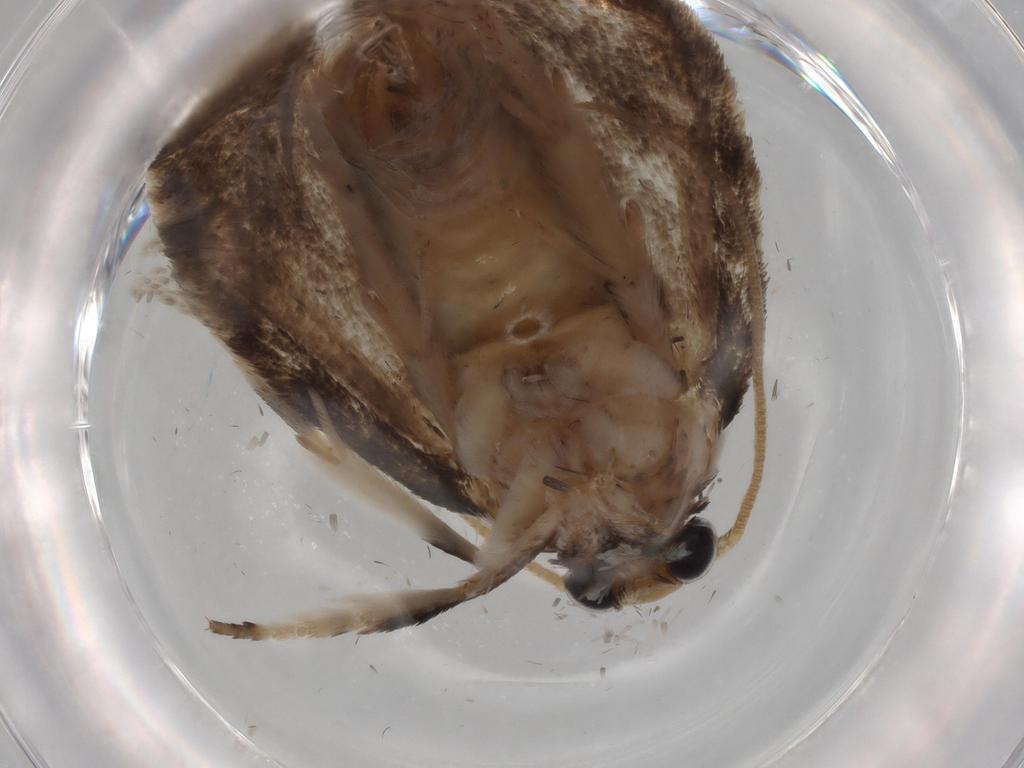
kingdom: Animalia
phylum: Arthropoda
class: Insecta
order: Lepidoptera
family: Tineidae
